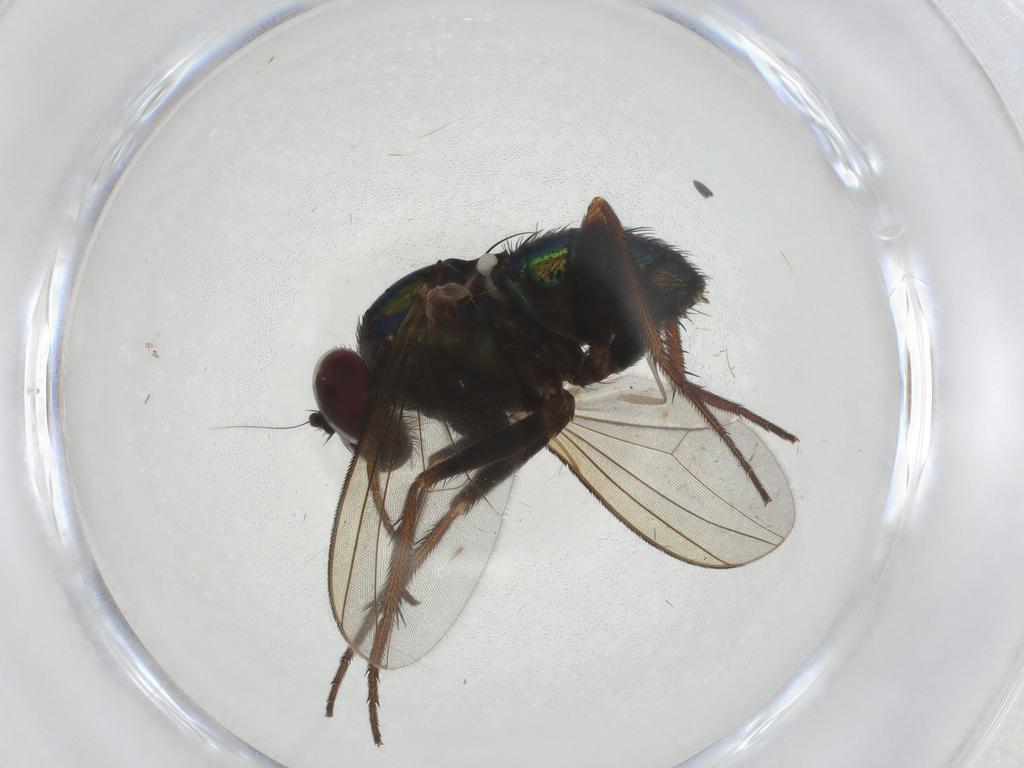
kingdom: Animalia
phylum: Arthropoda
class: Insecta
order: Diptera
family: Dolichopodidae
